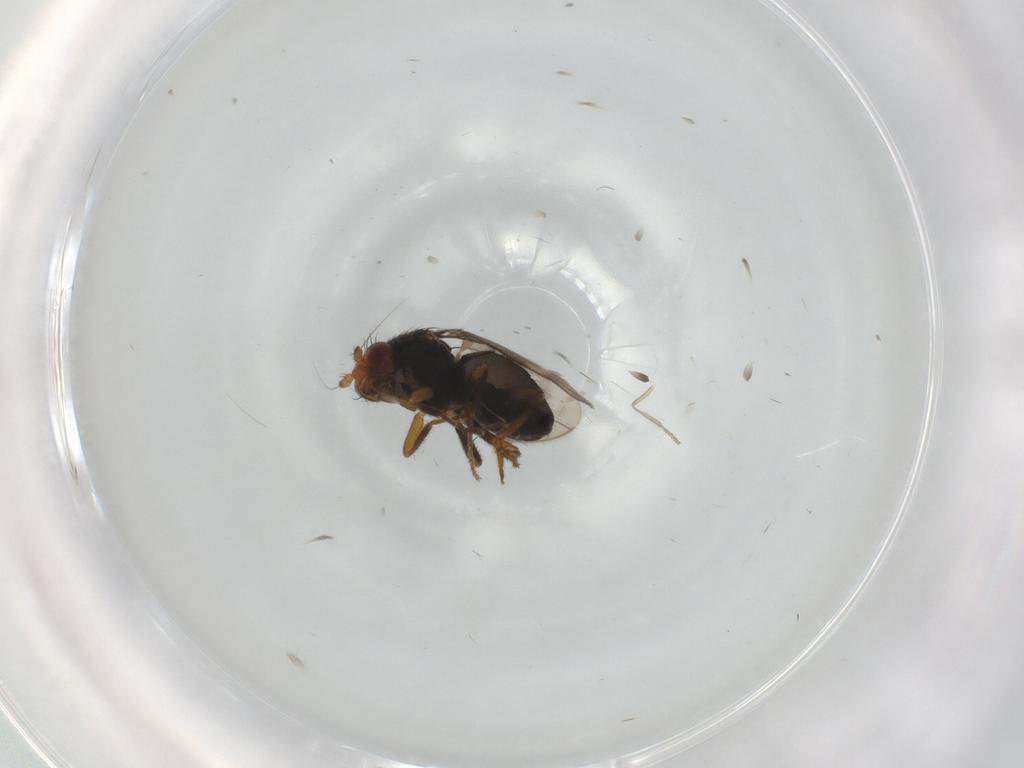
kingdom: Animalia
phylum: Arthropoda
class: Insecta
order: Diptera
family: Sphaeroceridae
